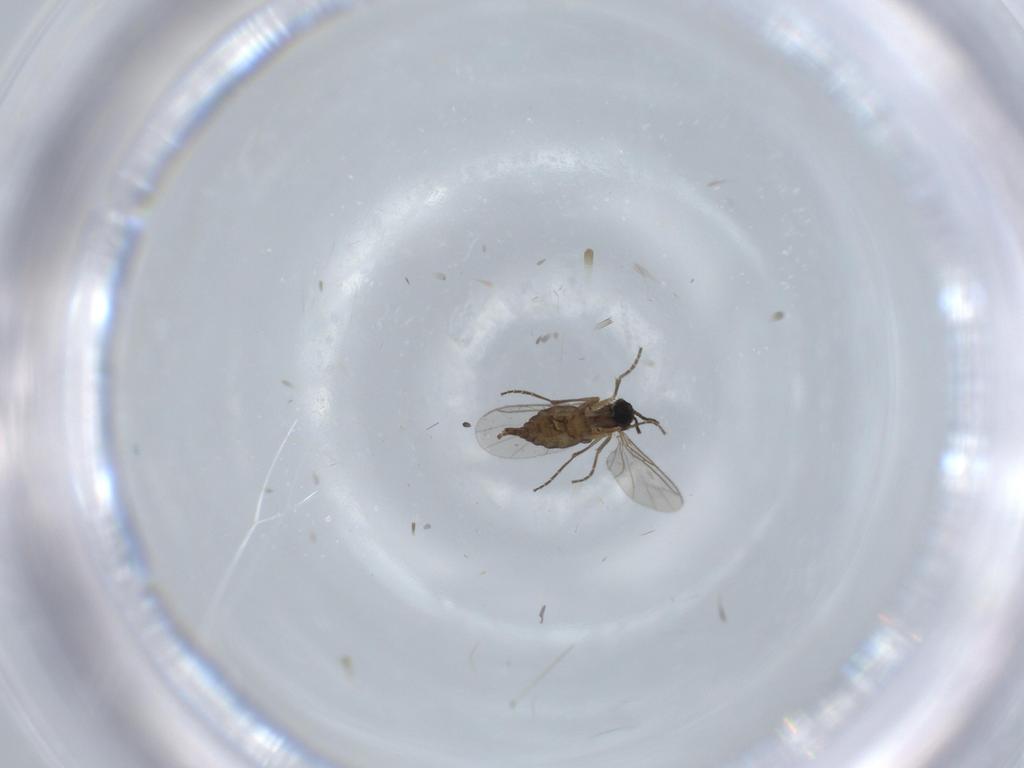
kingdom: Animalia
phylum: Arthropoda
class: Insecta
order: Diptera
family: Sciaridae
